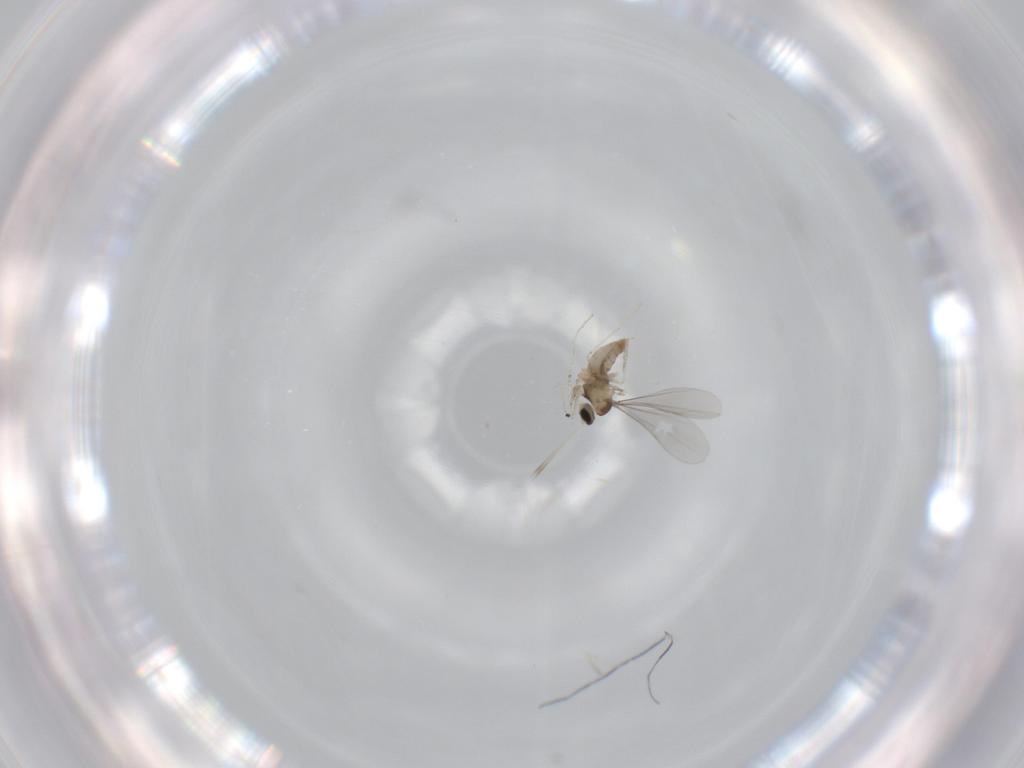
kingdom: Animalia
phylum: Arthropoda
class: Insecta
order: Diptera
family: Cecidomyiidae
